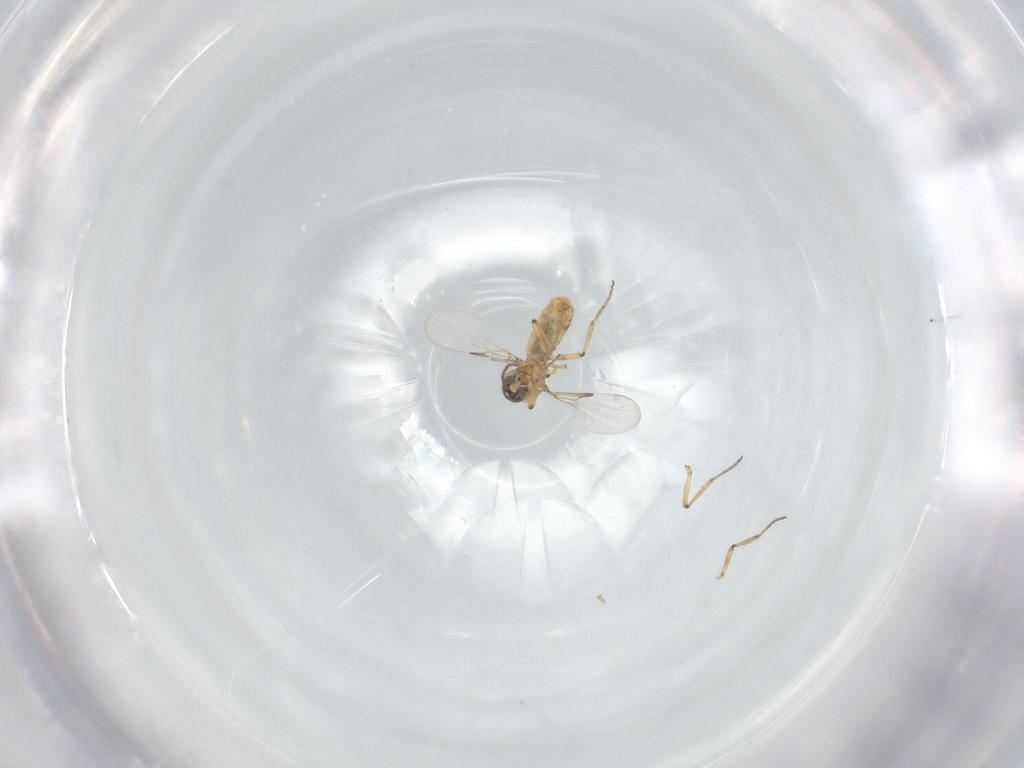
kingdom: Animalia
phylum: Arthropoda
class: Insecta
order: Diptera
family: Ceratopogonidae
